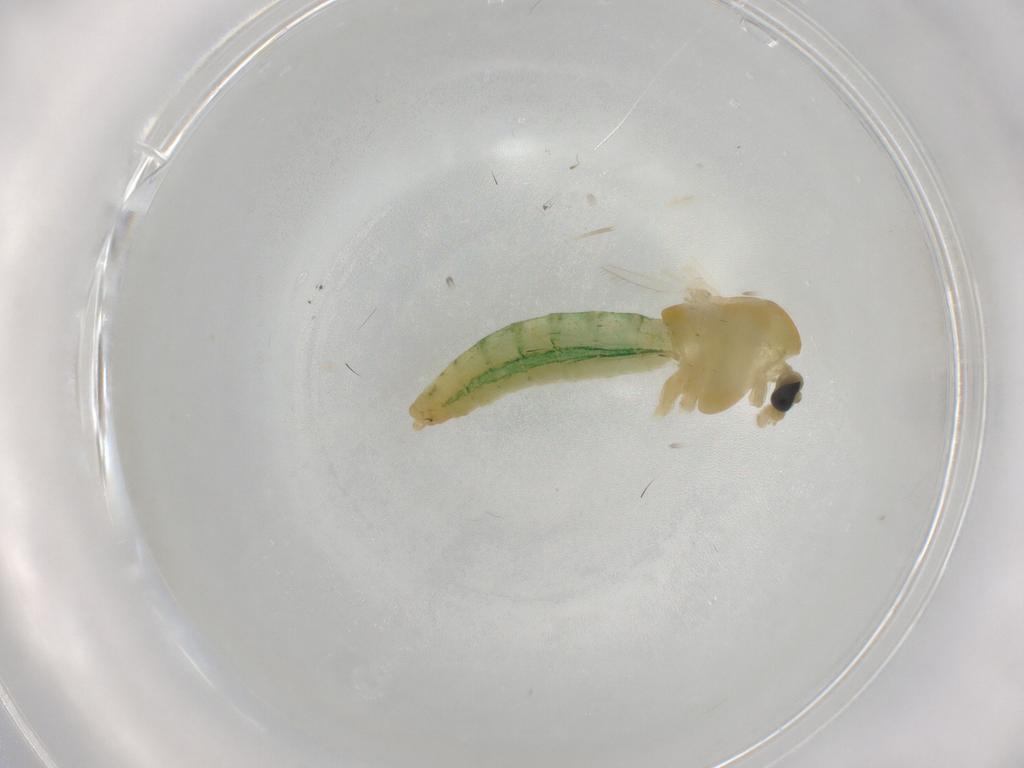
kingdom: Animalia
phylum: Arthropoda
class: Insecta
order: Diptera
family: Chironomidae
